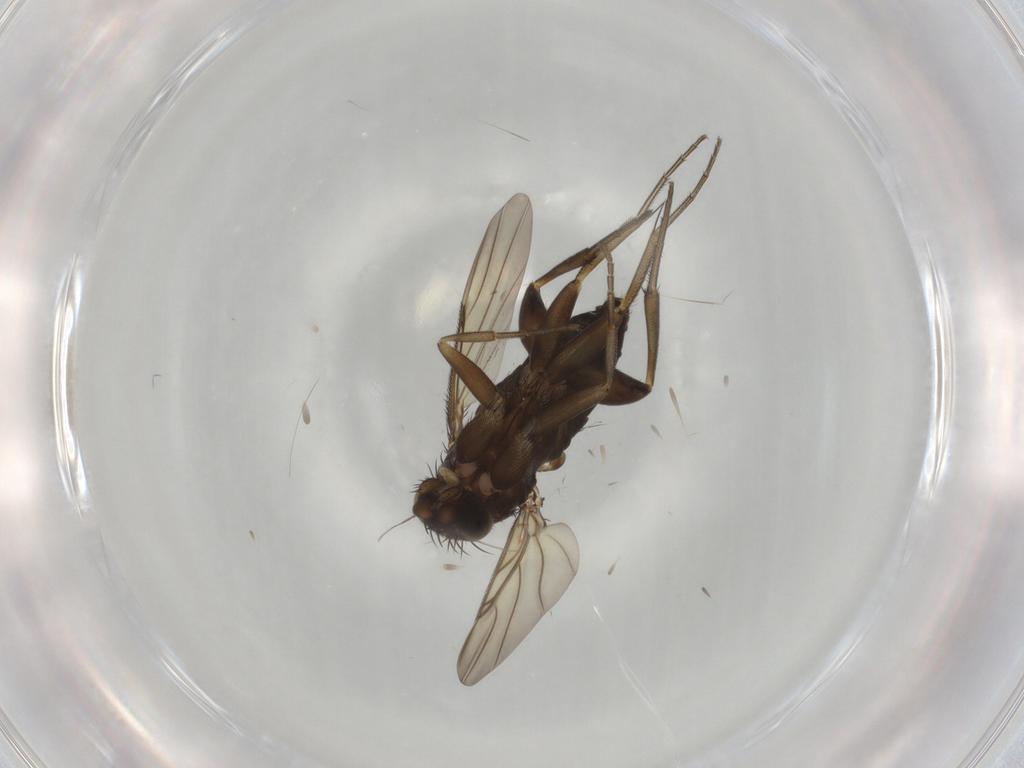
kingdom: Animalia
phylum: Arthropoda
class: Insecta
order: Diptera
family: Phoridae
